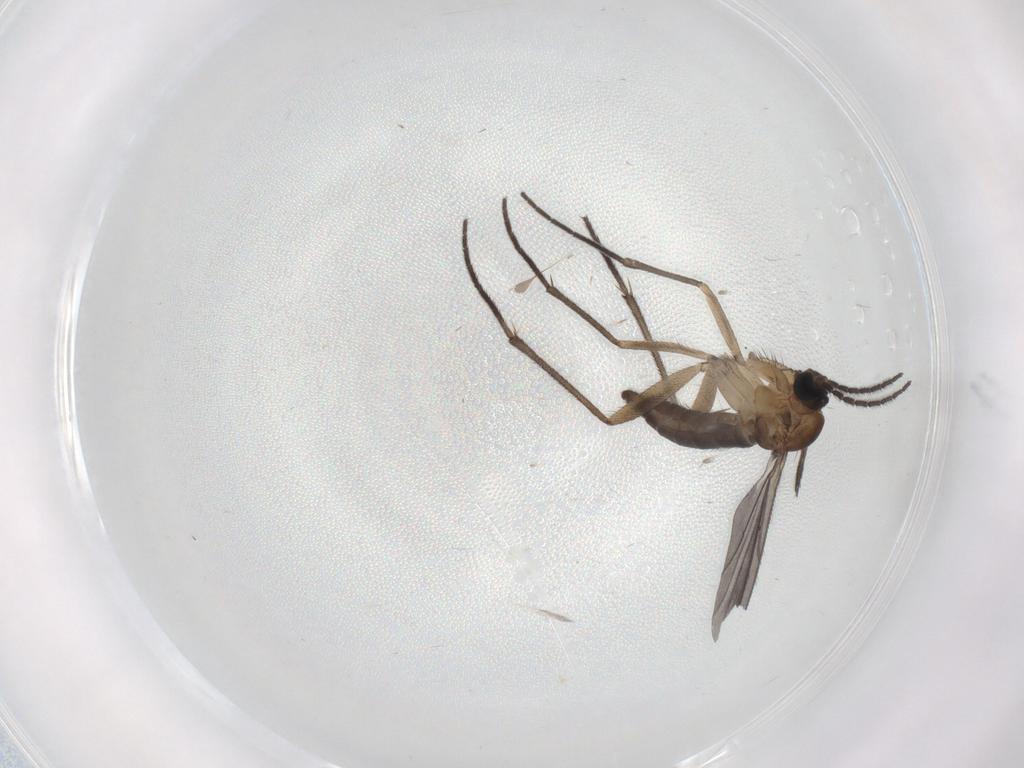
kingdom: Animalia
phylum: Arthropoda
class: Insecta
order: Diptera
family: Sciaridae
